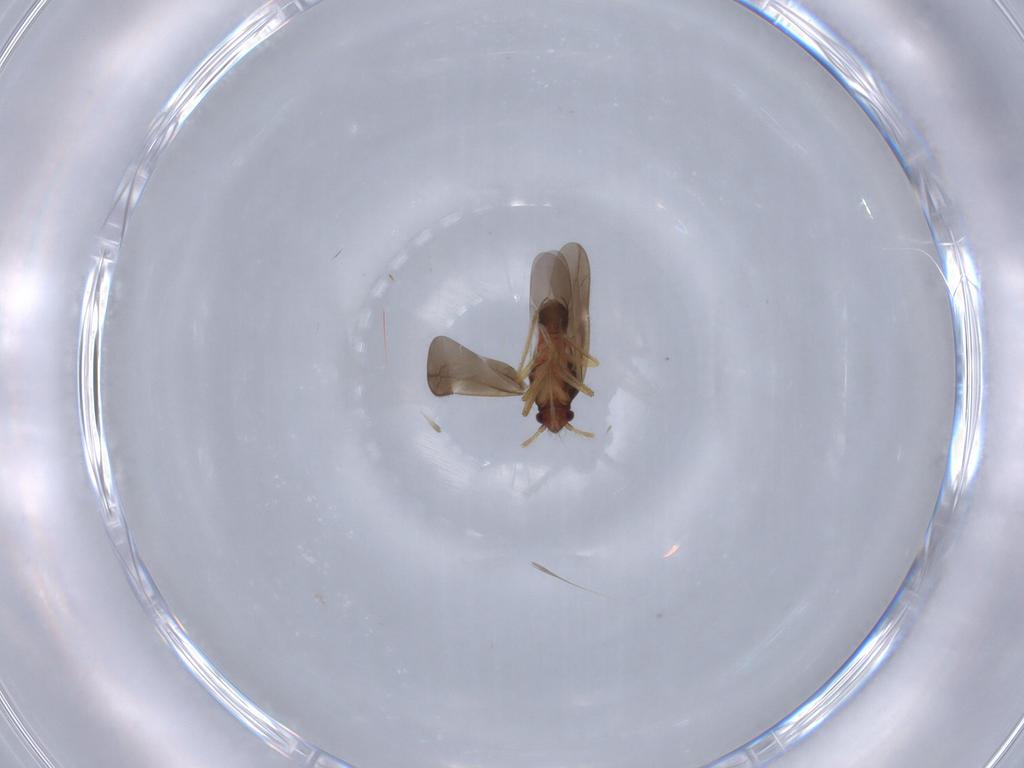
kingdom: Animalia
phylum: Arthropoda
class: Insecta
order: Hemiptera
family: Ceratocombidae
